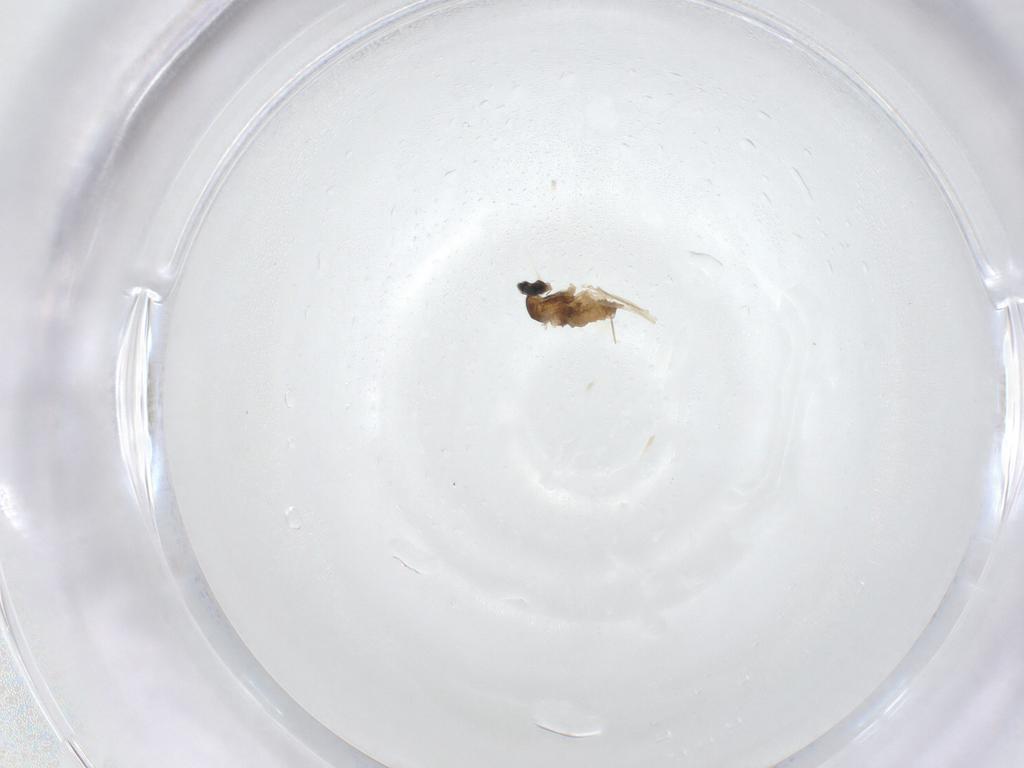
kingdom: Animalia
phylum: Arthropoda
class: Insecta
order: Diptera
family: Cecidomyiidae
